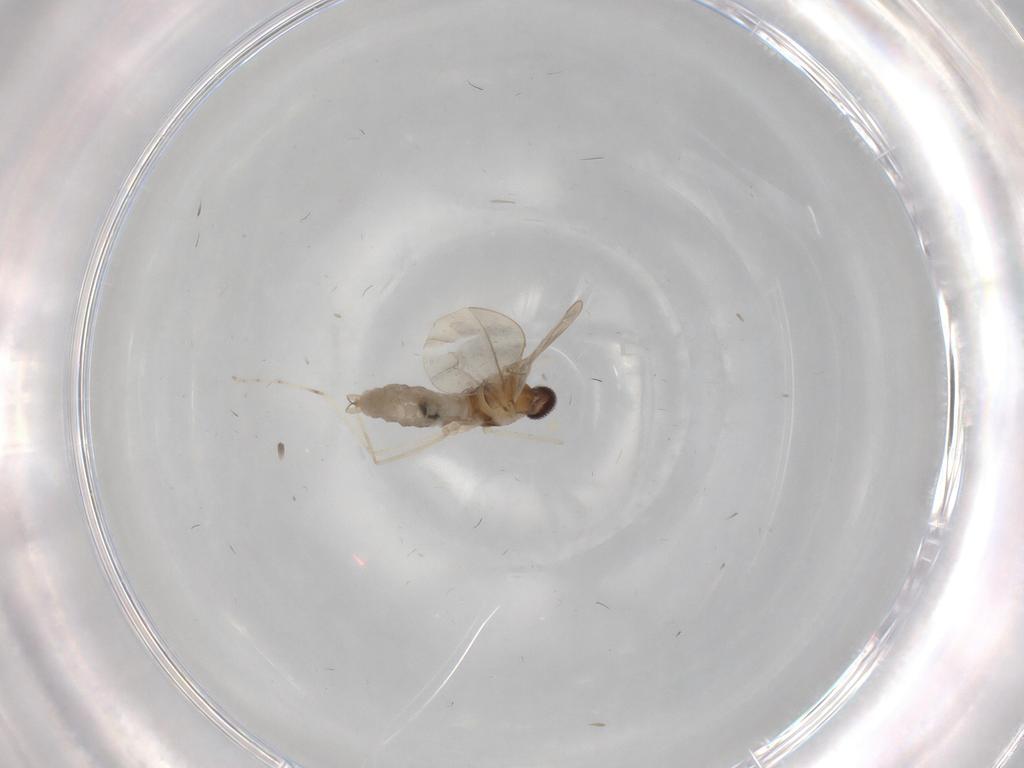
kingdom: Animalia
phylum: Arthropoda
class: Insecta
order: Diptera
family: Cecidomyiidae
